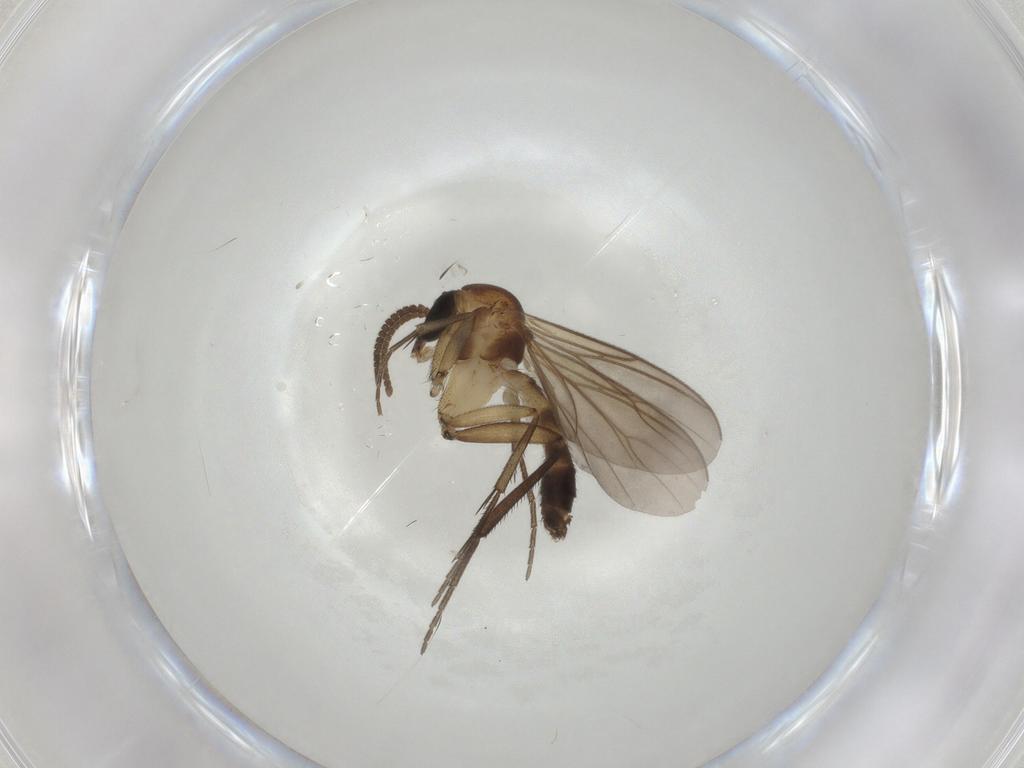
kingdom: Animalia
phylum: Arthropoda
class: Insecta
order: Diptera
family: Mycetophilidae
